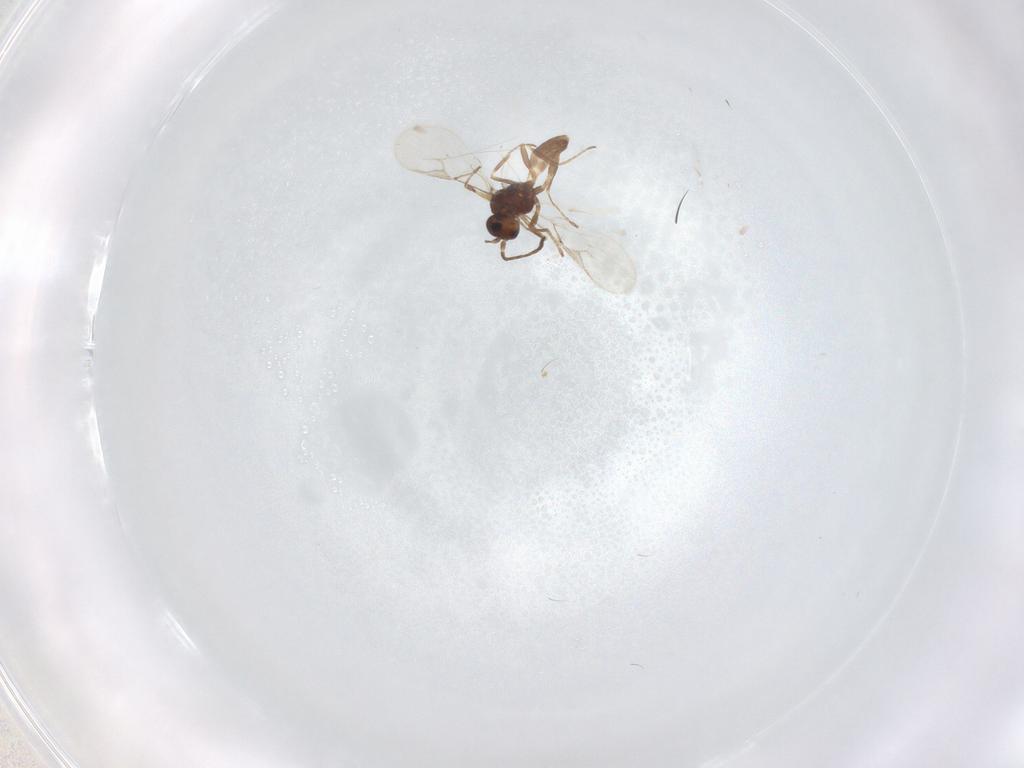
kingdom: Animalia
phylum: Arthropoda
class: Insecta
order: Hymenoptera
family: Braconidae
